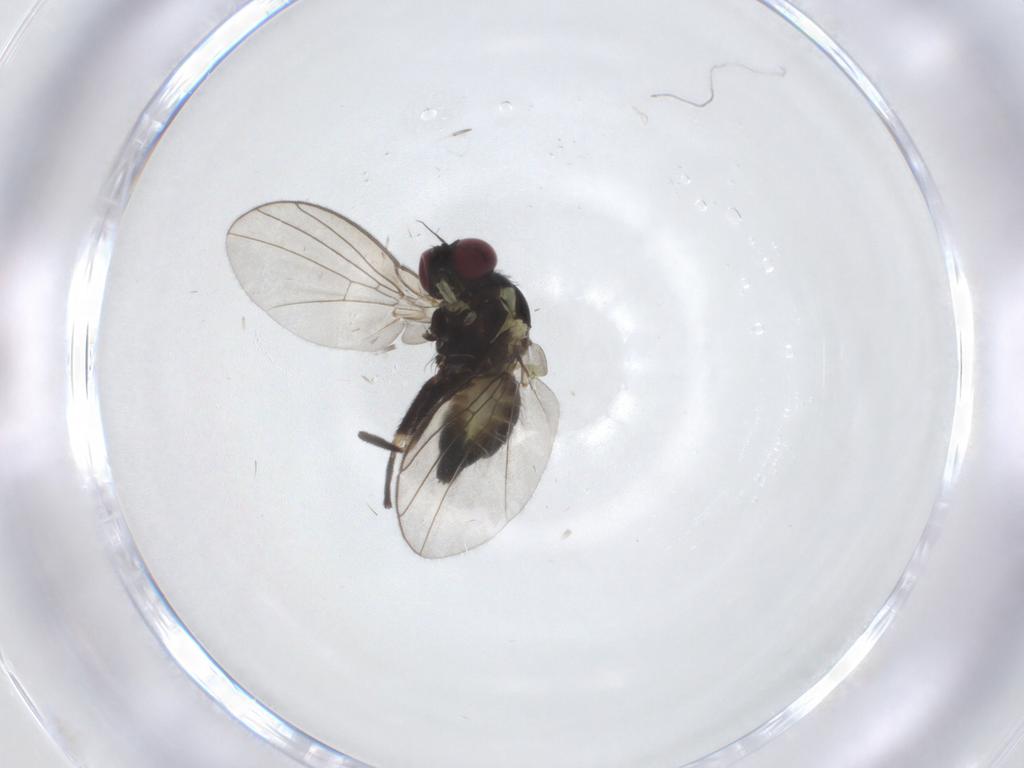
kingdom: Animalia
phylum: Arthropoda
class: Insecta
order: Diptera
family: Agromyzidae
